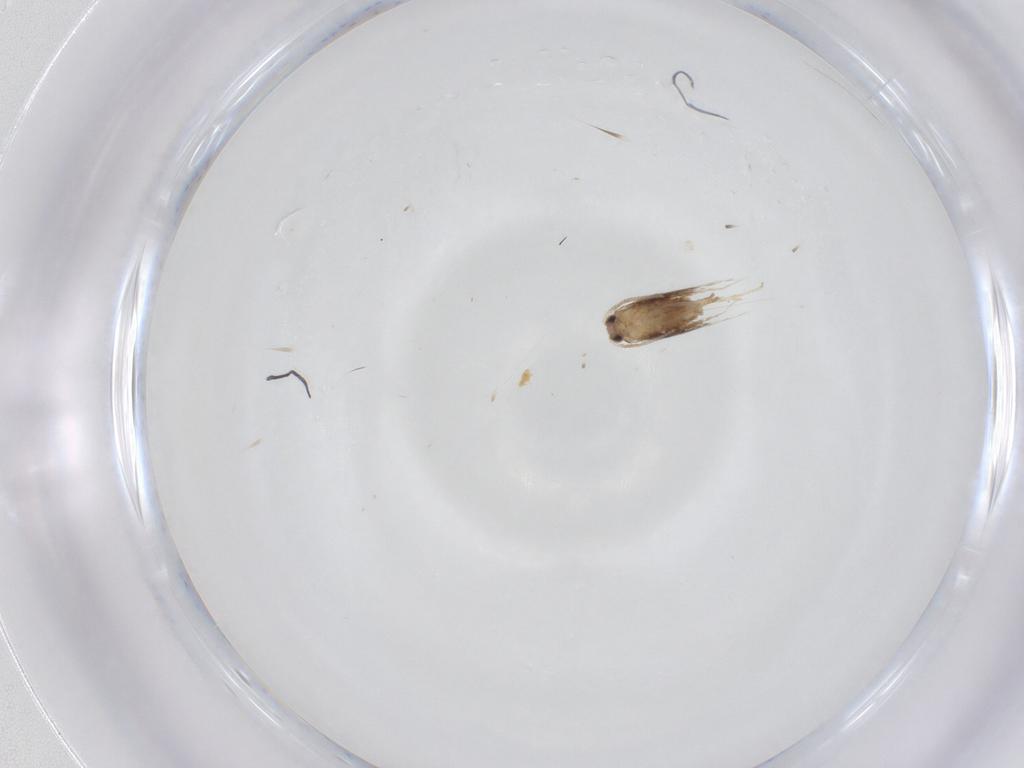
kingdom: Animalia
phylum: Arthropoda
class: Insecta
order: Lepidoptera
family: Nepticulidae
